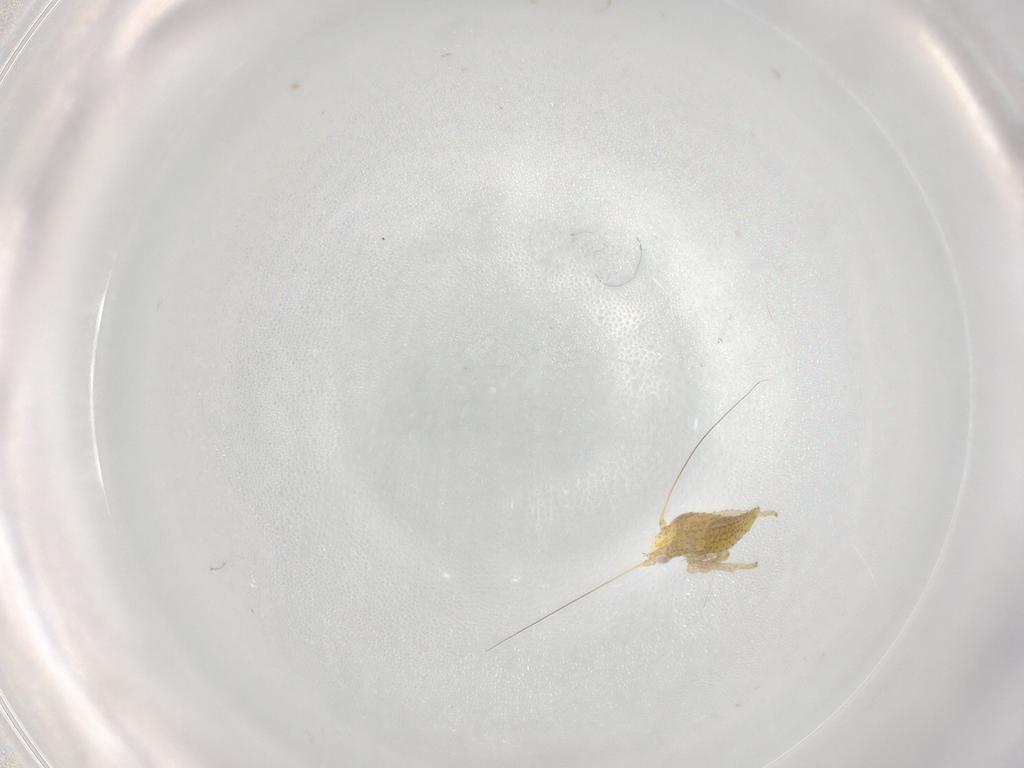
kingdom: Animalia
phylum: Arthropoda
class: Insecta
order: Hemiptera
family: Cicadellidae
